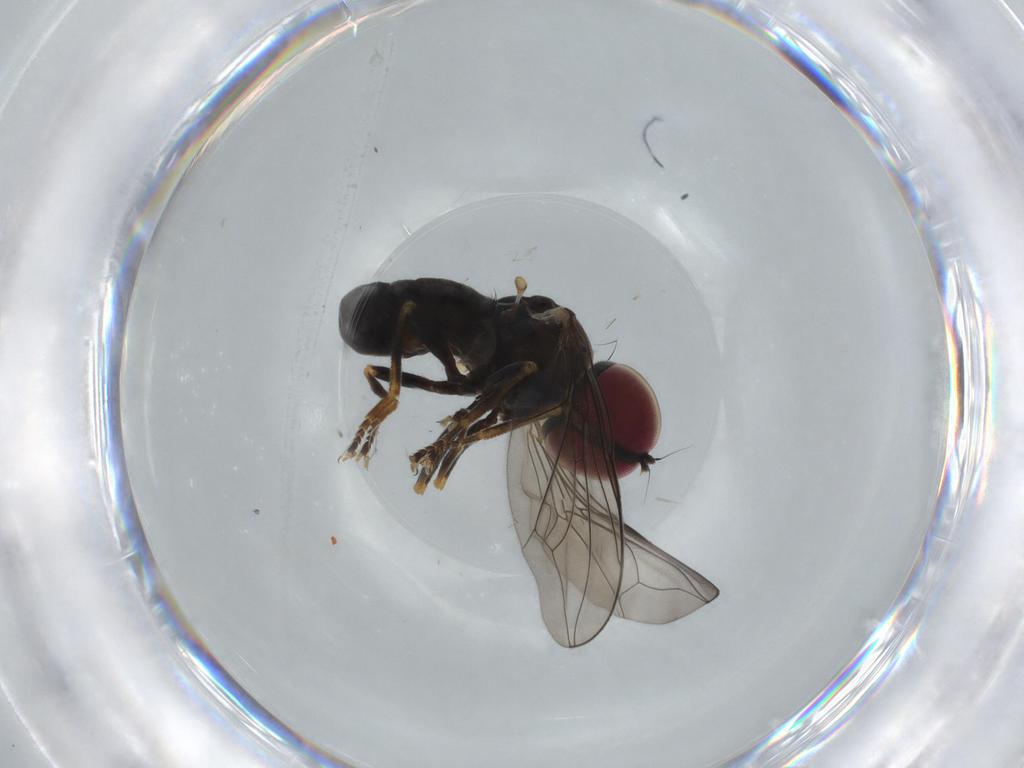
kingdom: Animalia
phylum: Arthropoda
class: Insecta
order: Diptera
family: Pipunculidae
